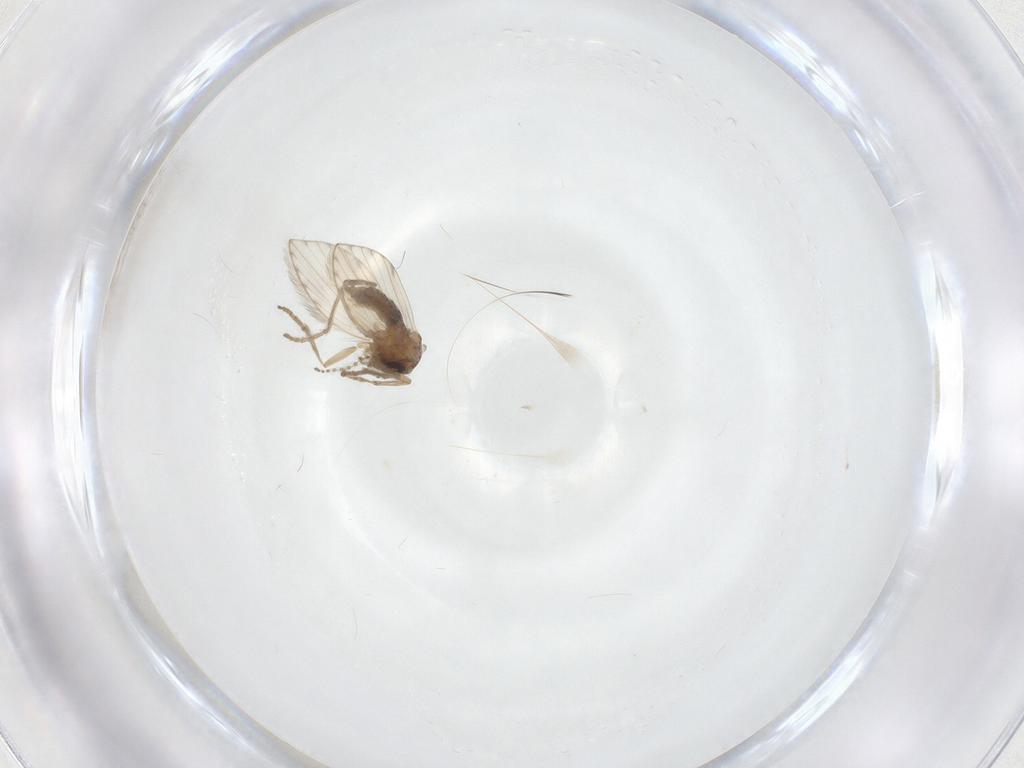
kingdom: Animalia
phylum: Arthropoda
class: Insecta
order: Diptera
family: Psychodidae
